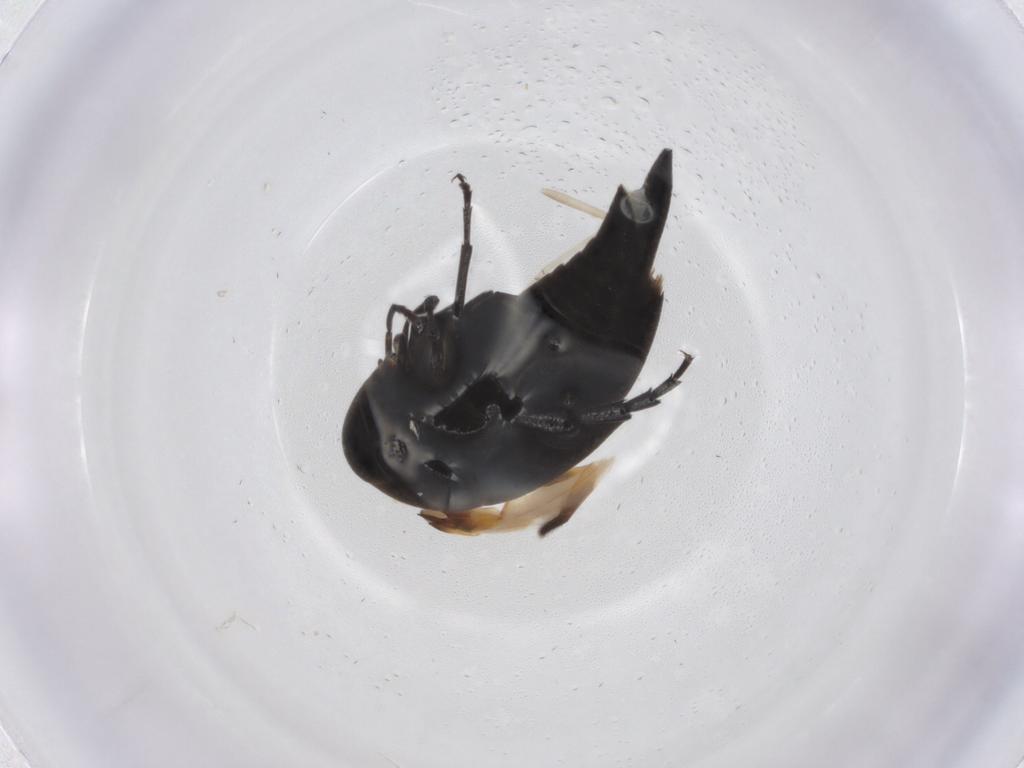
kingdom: Animalia
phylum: Arthropoda
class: Insecta
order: Coleoptera
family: Mordellidae
